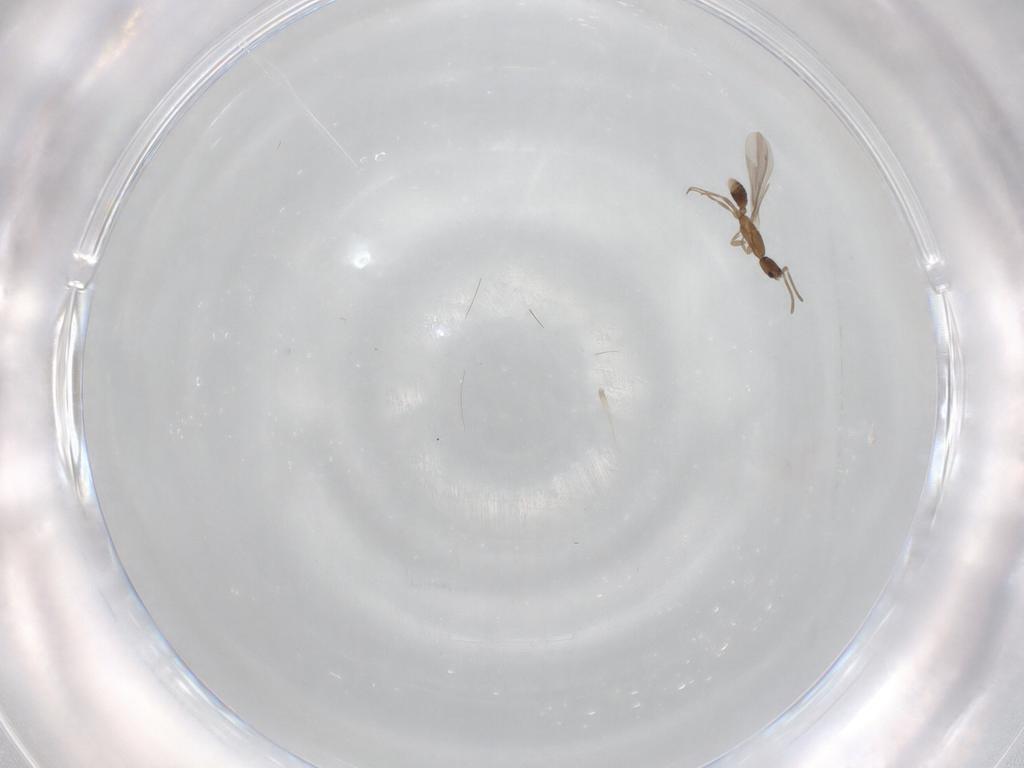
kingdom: Animalia
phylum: Arthropoda
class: Insecta
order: Hymenoptera
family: Formicidae
